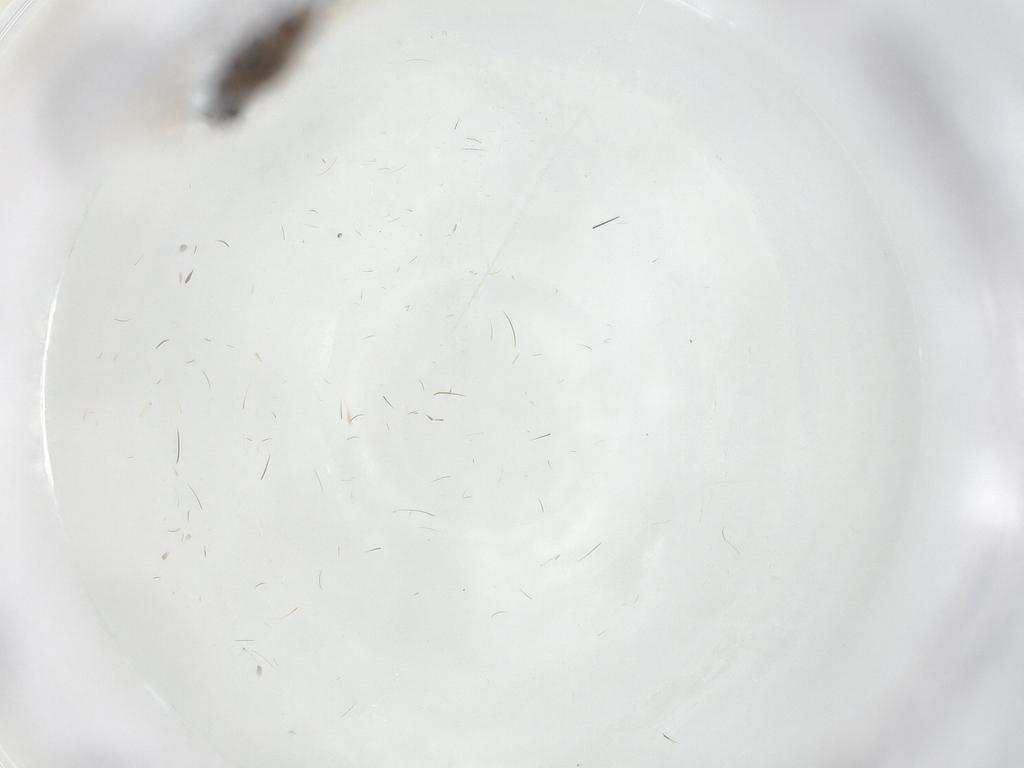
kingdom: Animalia
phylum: Arthropoda
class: Insecta
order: Diptera
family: Sciaridae
